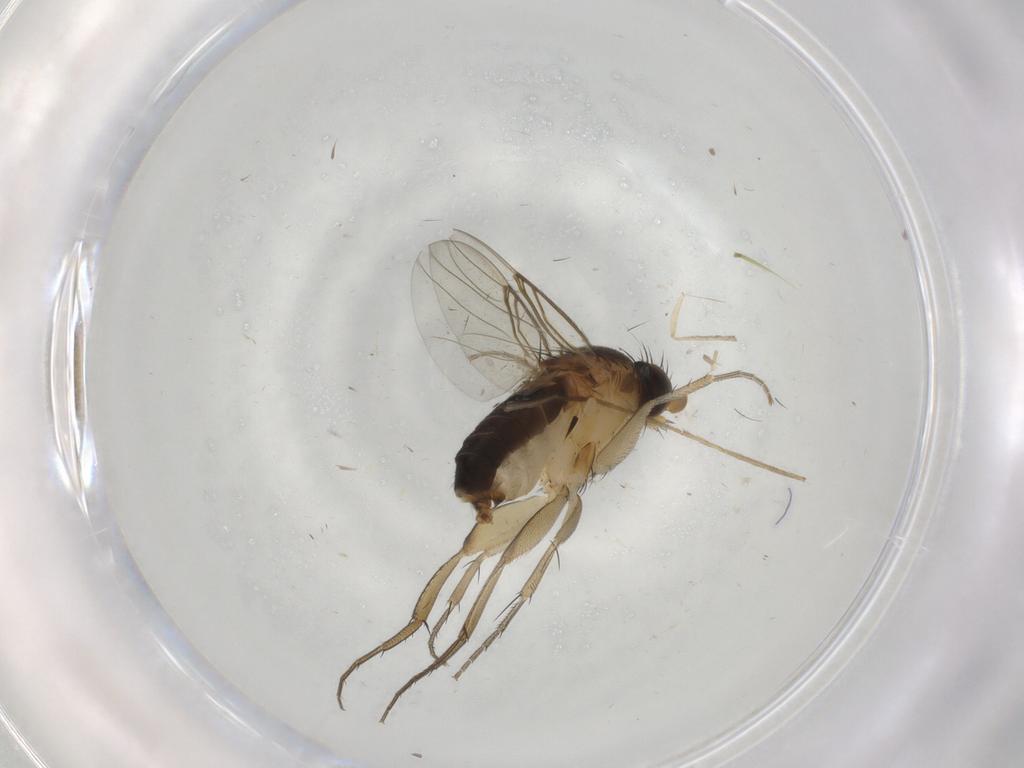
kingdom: Animalia
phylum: Arthropoda
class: Insecta
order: Diptera
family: Phoridae
